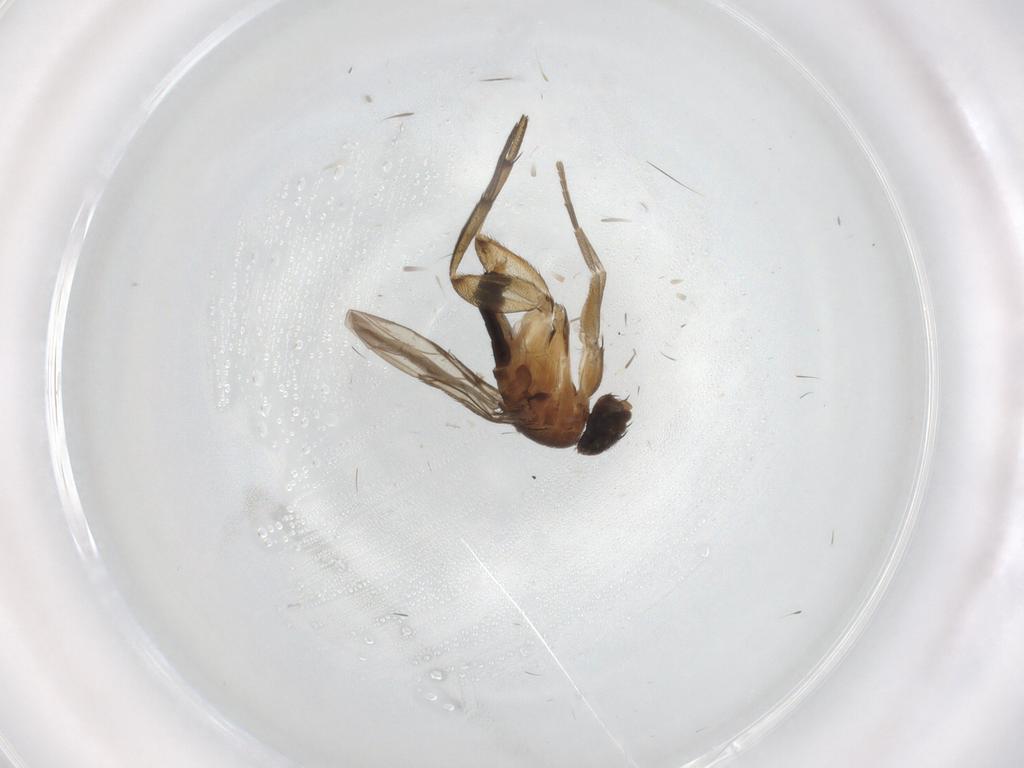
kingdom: Animalia
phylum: Arthropoda
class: Insecta
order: Diptera
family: Phoridae
